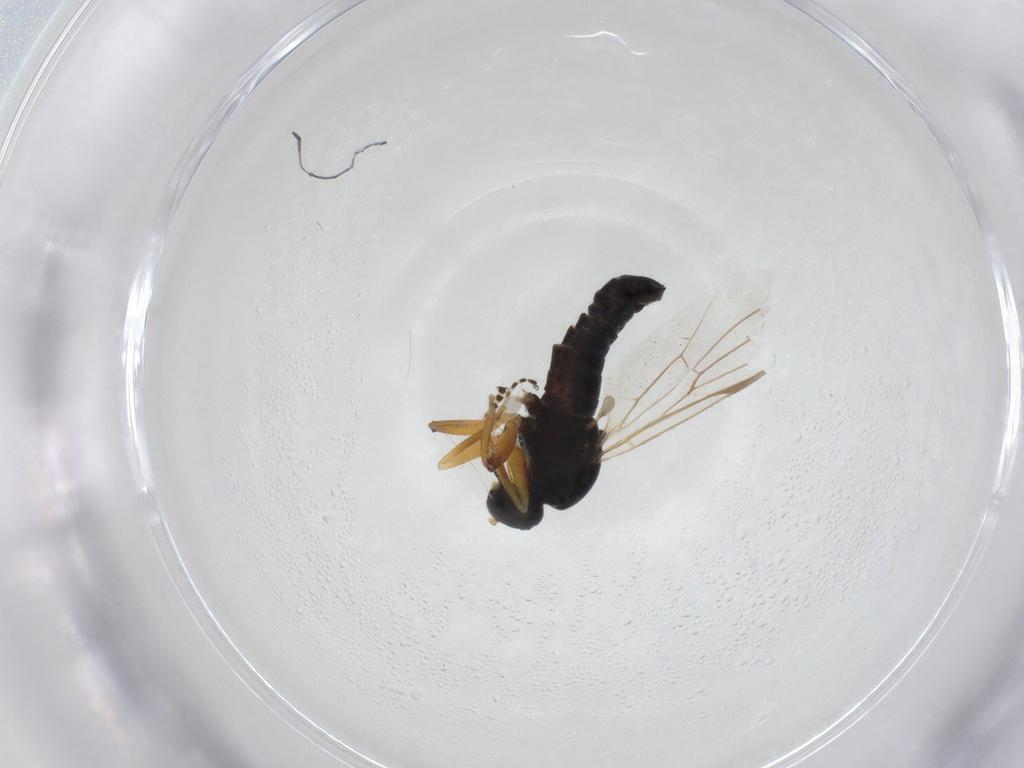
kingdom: Animalia
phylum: Arthropoda
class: Insecta
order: Diptera
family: Hybotidae
